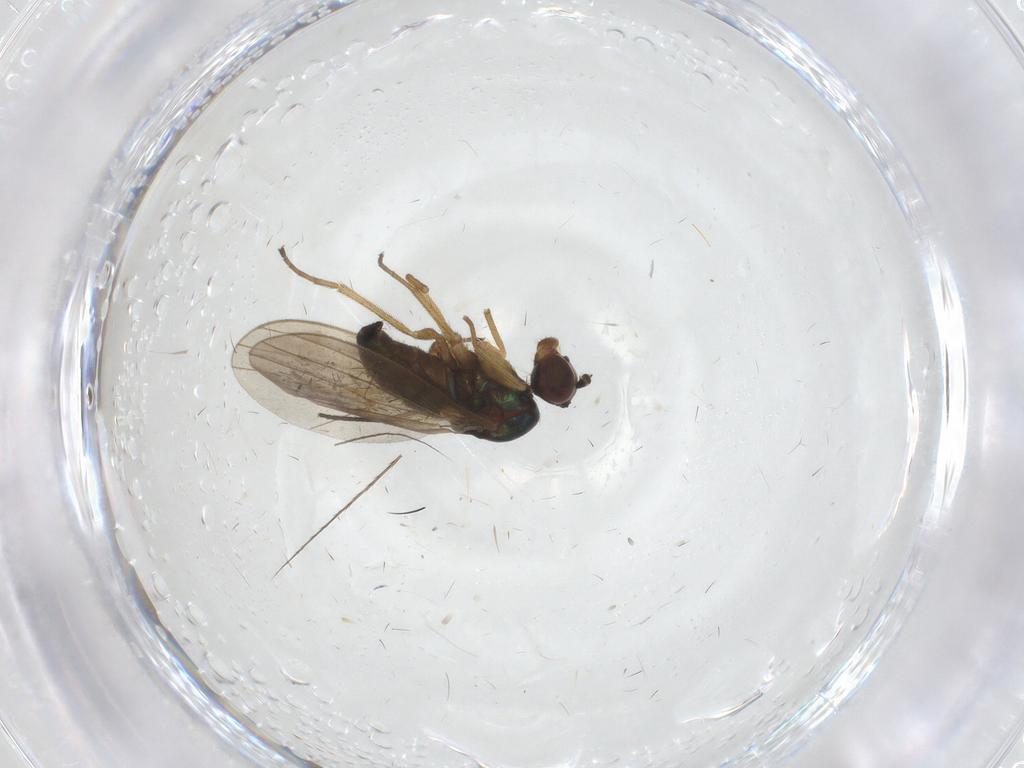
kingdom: Animalia
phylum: Arthropoda
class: Insecta
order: Diptera
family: Dolichopodidae
